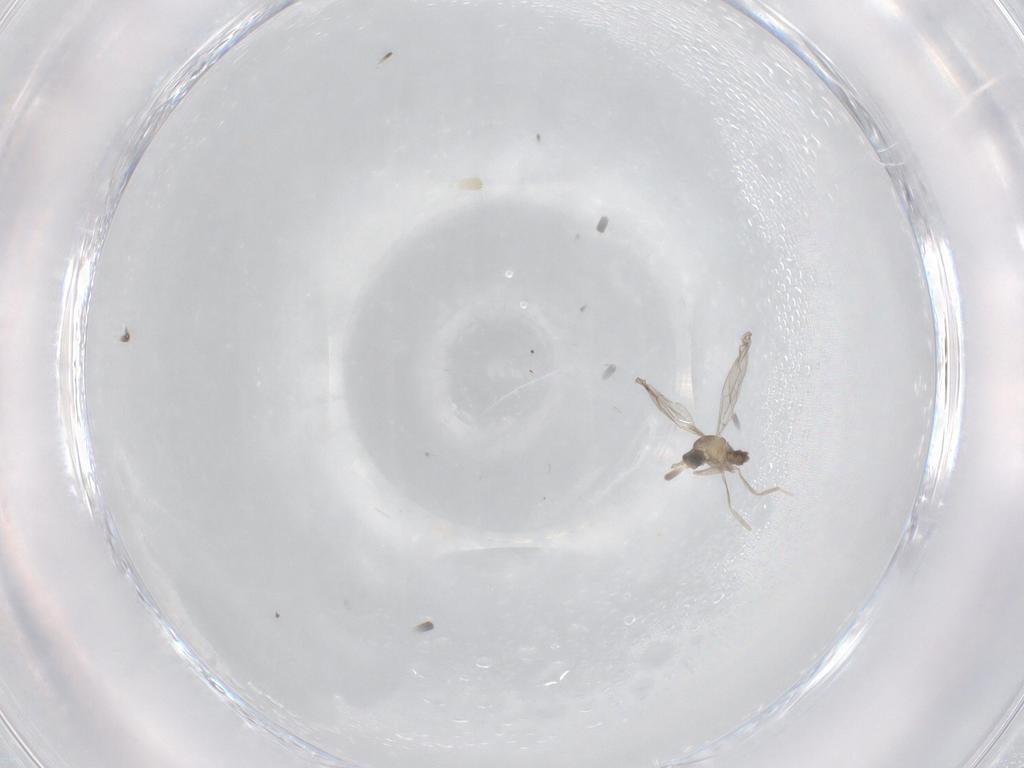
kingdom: Animalia
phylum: Arthropoda
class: Insecta
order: Diptera
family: Cecidomyiidae
